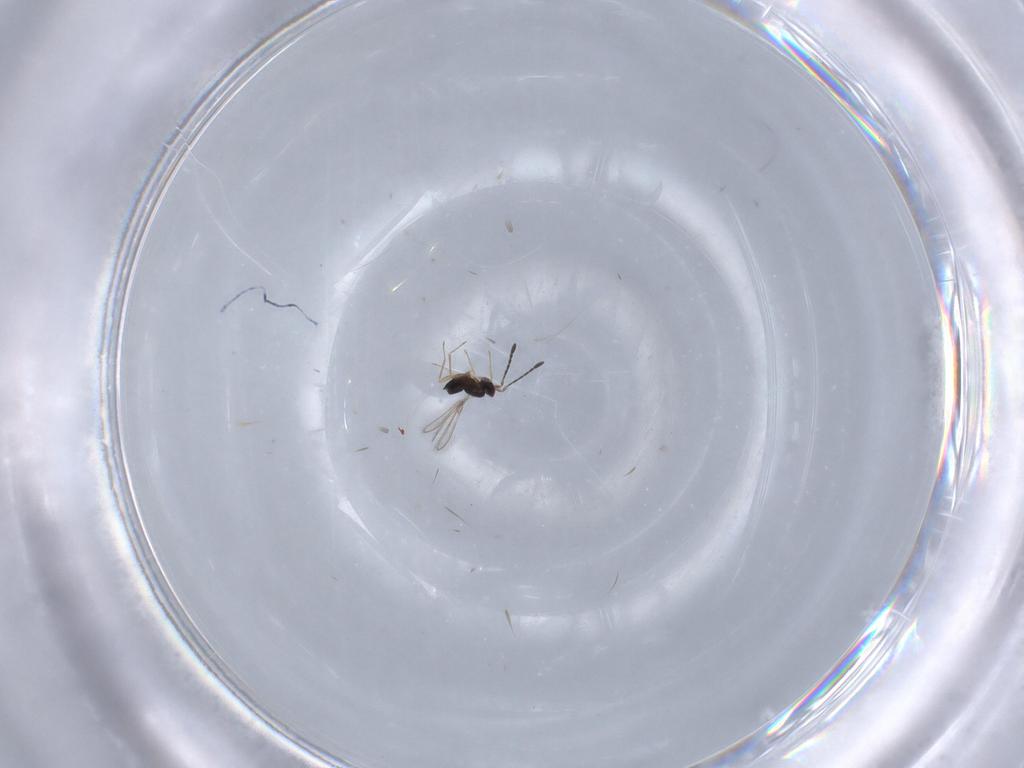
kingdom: Animalia
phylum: Arthropoda
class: Insecta
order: Hymenoptera
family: Braconidae
